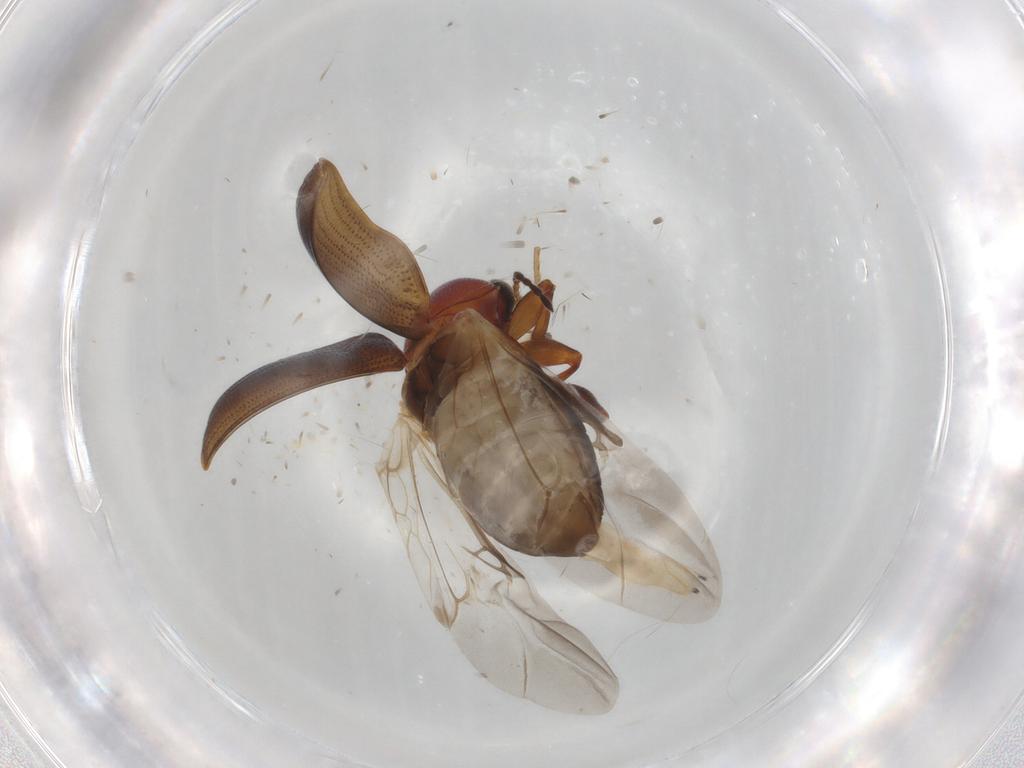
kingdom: Animalia
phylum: Arthropoda
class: Insecta
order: Coleoptera
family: Chrysomelidae
